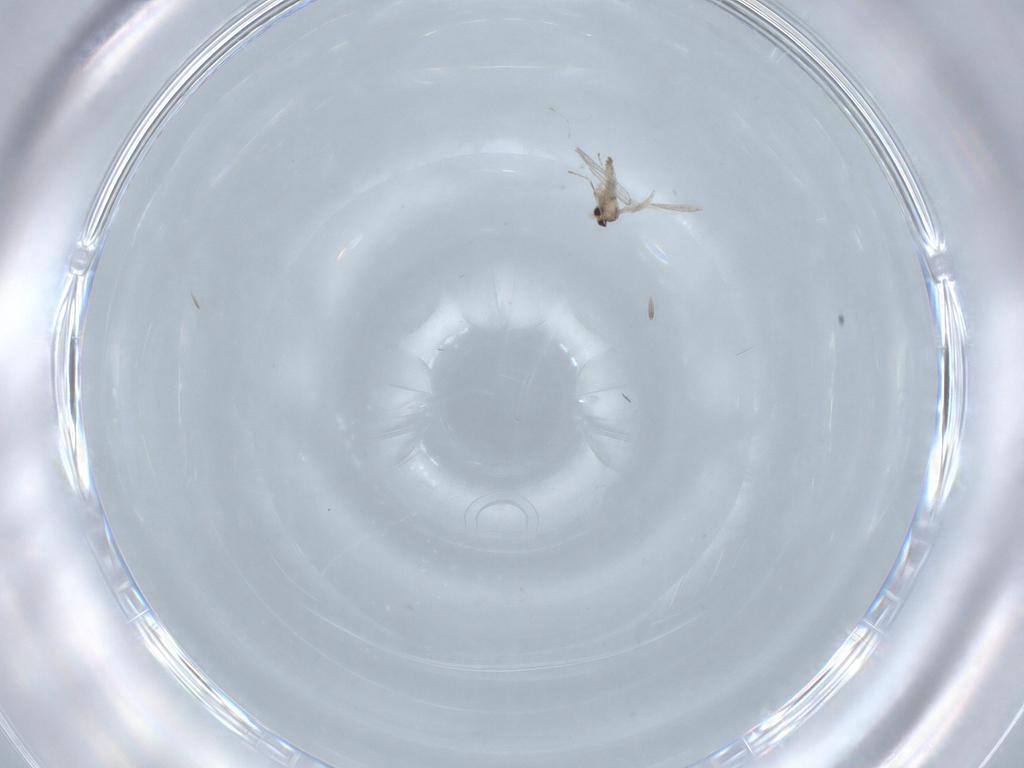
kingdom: Animalia
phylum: Arthropoda
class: Insecta
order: Diptera
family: Cecidomyiidae
